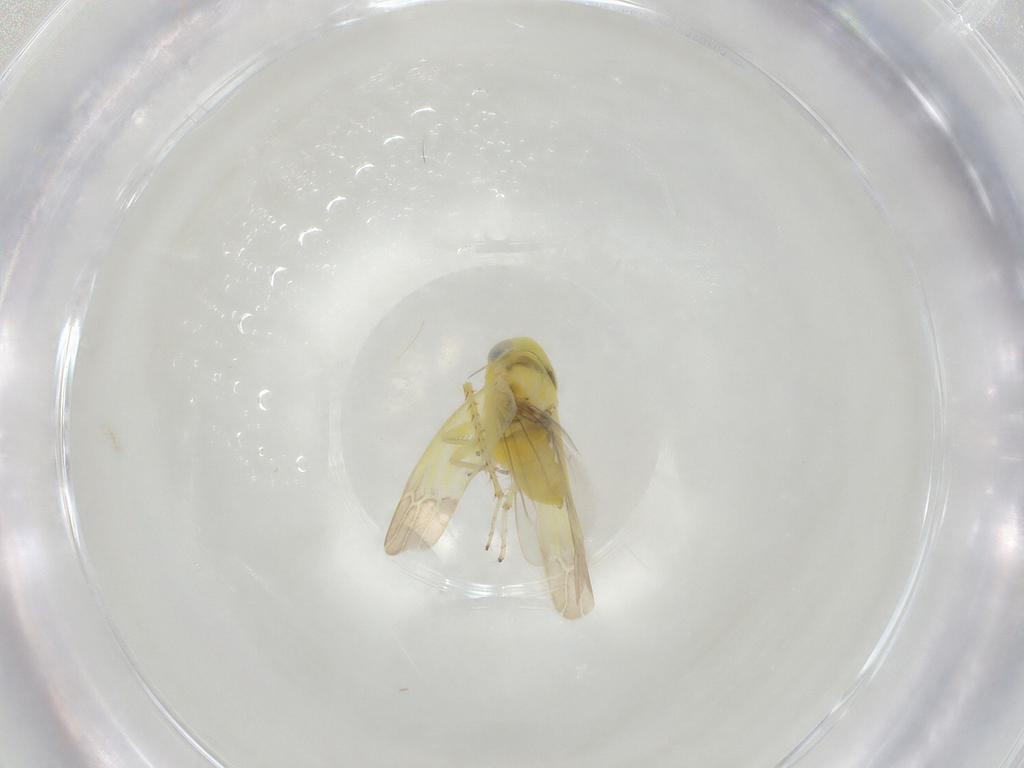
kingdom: Animalia
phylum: Arthropoda
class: Insecta
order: Hemiptera
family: Cicadellidae
